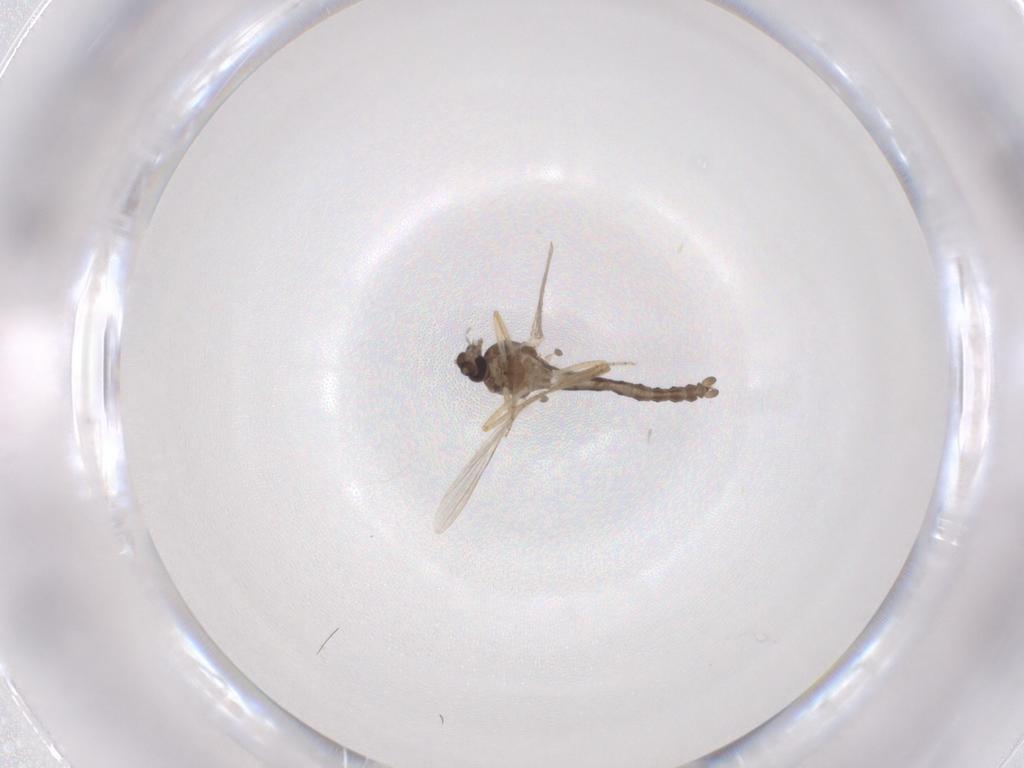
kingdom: Animalia
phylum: Arthropoda
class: Insecta
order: Diptera
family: Ceratopogonidae
